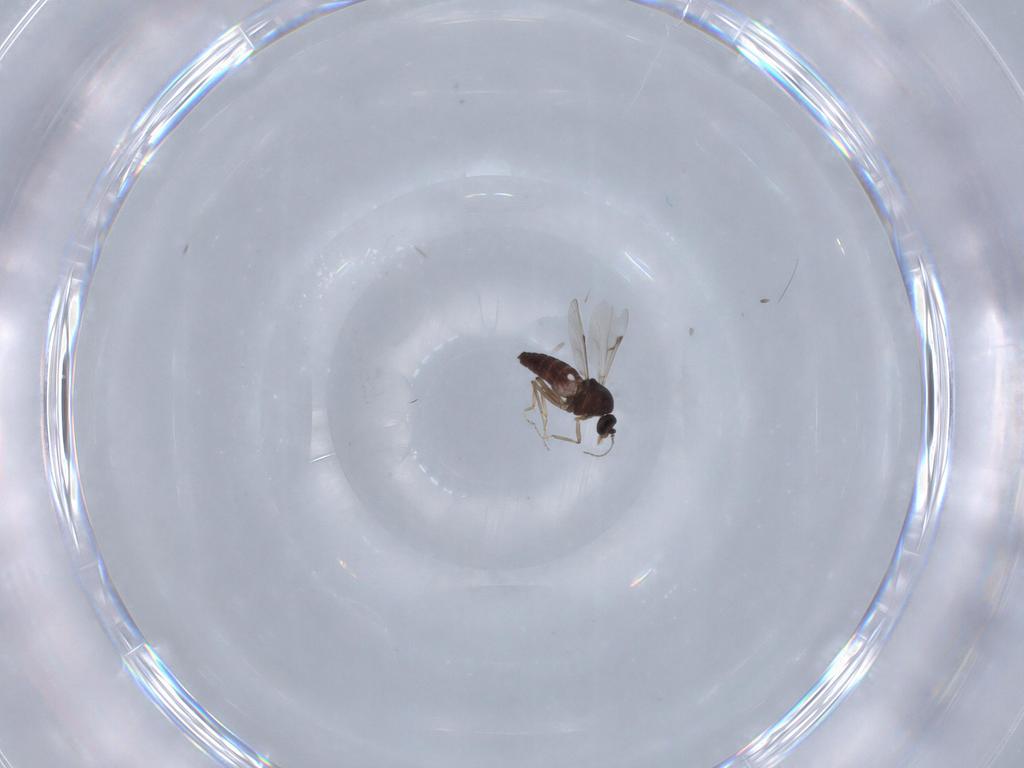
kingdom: Animalia
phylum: Arthropoda
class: Insecta
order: Diptera
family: Ceratopogonidae
